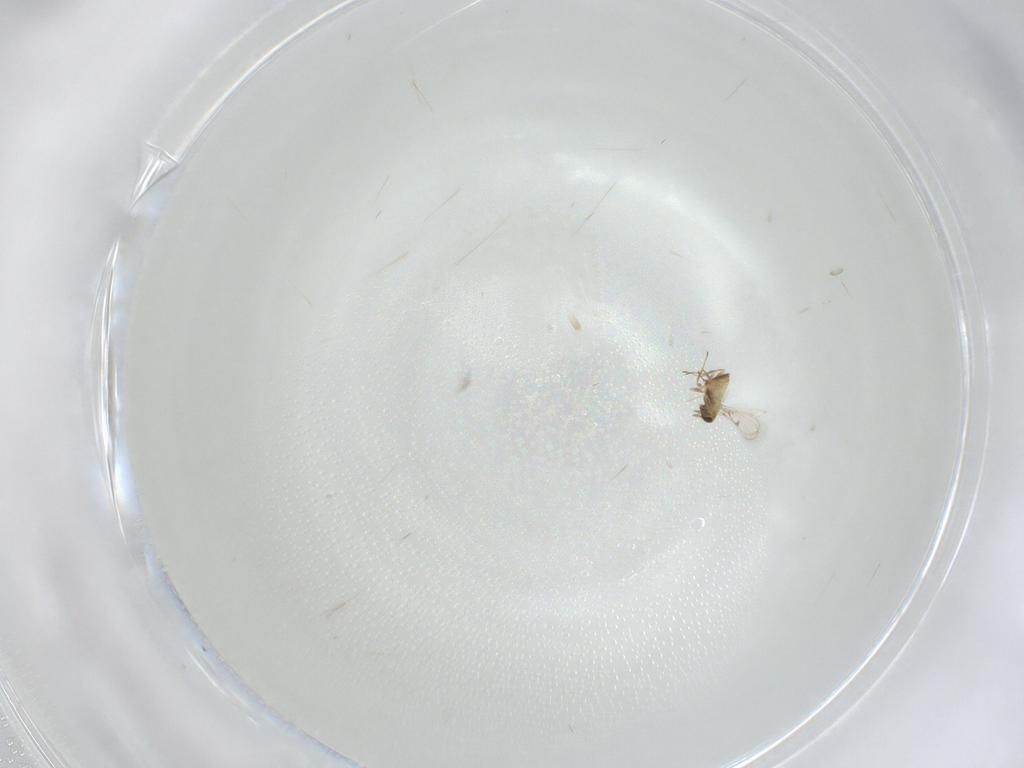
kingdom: Animalia
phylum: Arthropoda
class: Insecta
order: Hymenoptera
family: Trichogrammatidae
